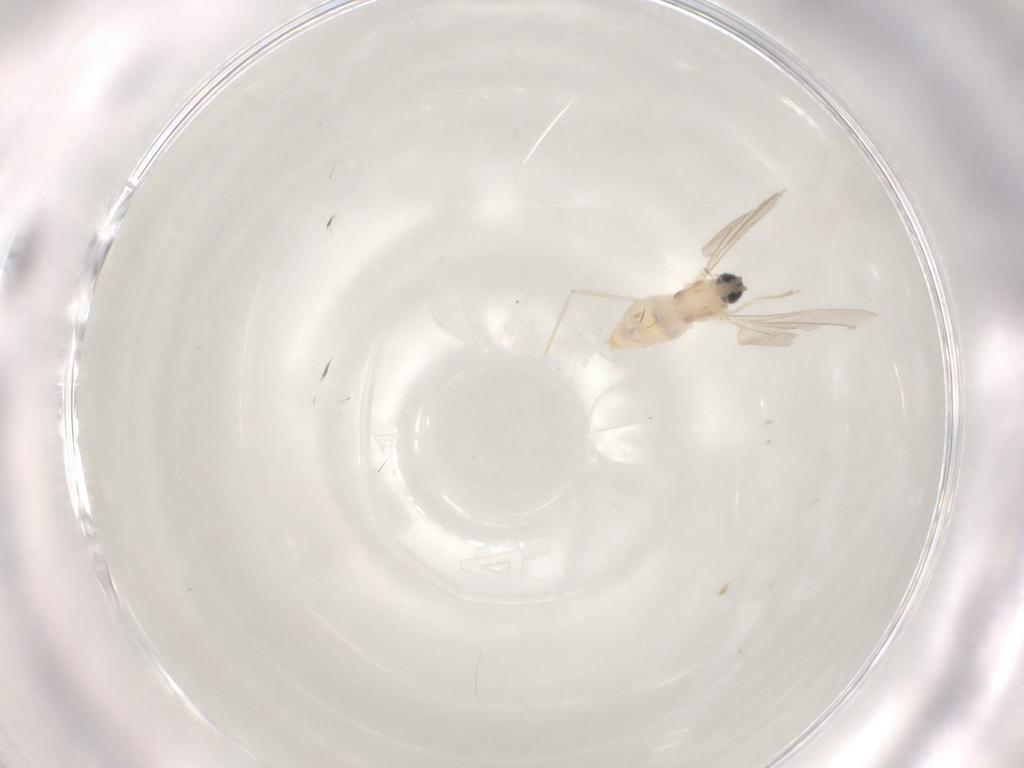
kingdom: Animalia
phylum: Arthropoda
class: Insecta
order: Diptera
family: Cecidomyiidae
